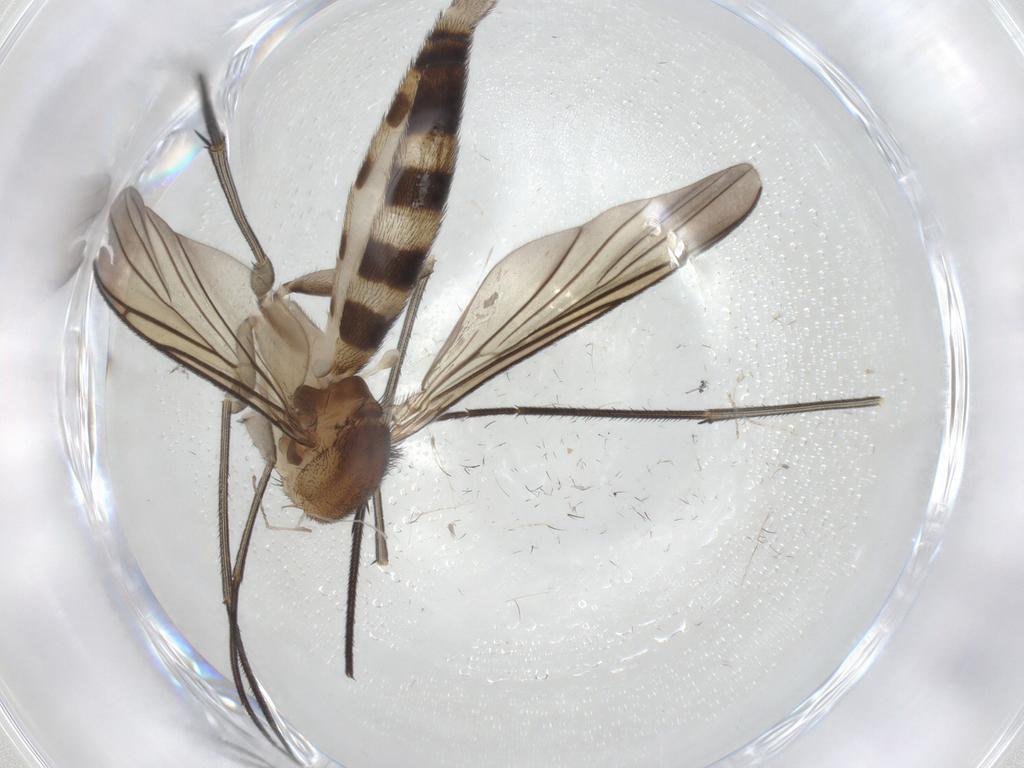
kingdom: Animalia
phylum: Arthropoda
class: Insecta
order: Diptera
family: Keroplatidae
